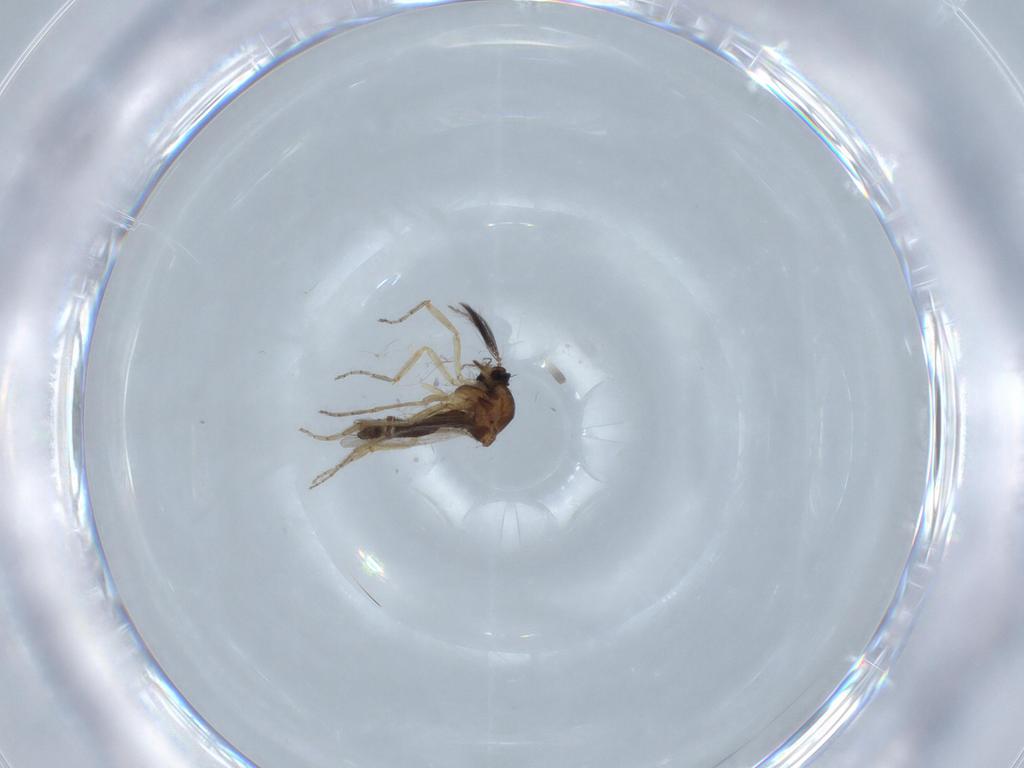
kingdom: Animalia
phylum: Arthropoda
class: Insecta
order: Diptera
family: Ceratopogonidae
